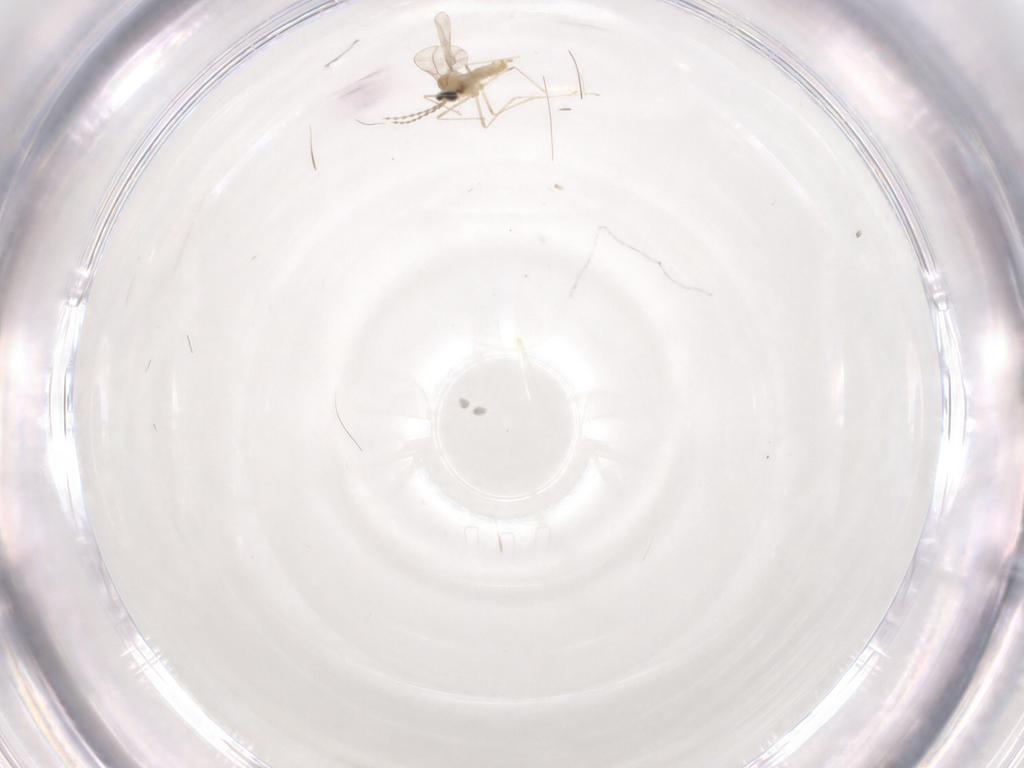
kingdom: Animalia
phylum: Arthropoda
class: Insecta
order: Diptera
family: Cecidomyiidae
